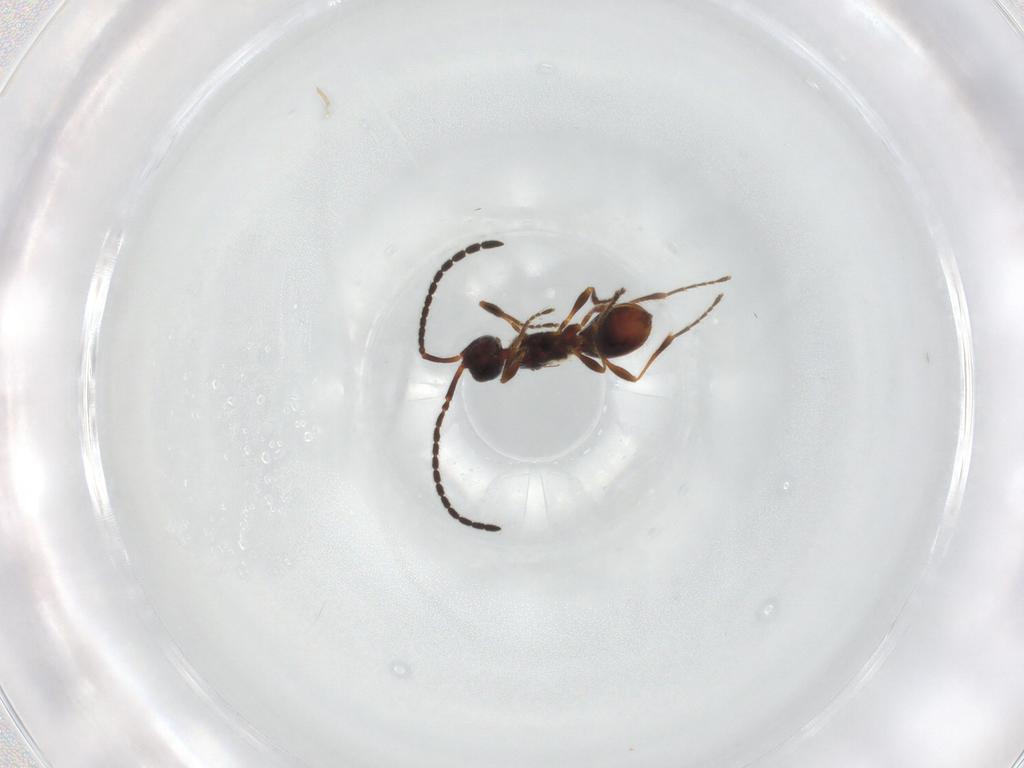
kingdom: Animalia
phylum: Arthropoda
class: Insecta
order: Hymenoptera
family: Diapriidae
